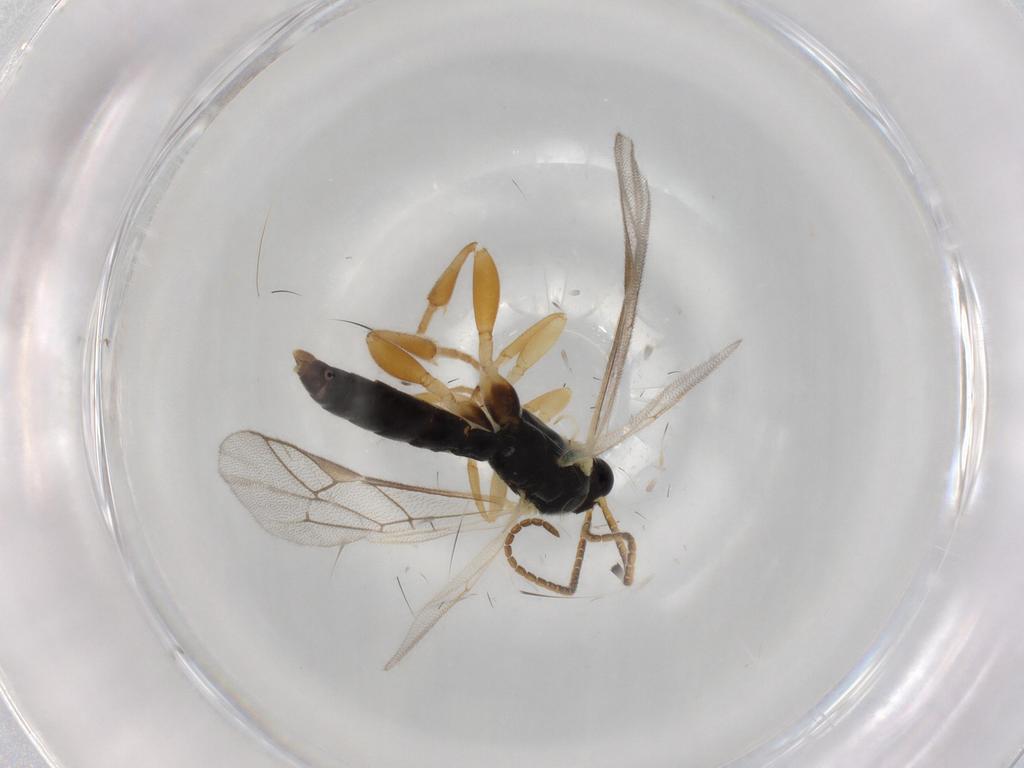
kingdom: Animalia
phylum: Arthropoda
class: Insecta
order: Hymenoptera
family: Ichneumonidae
